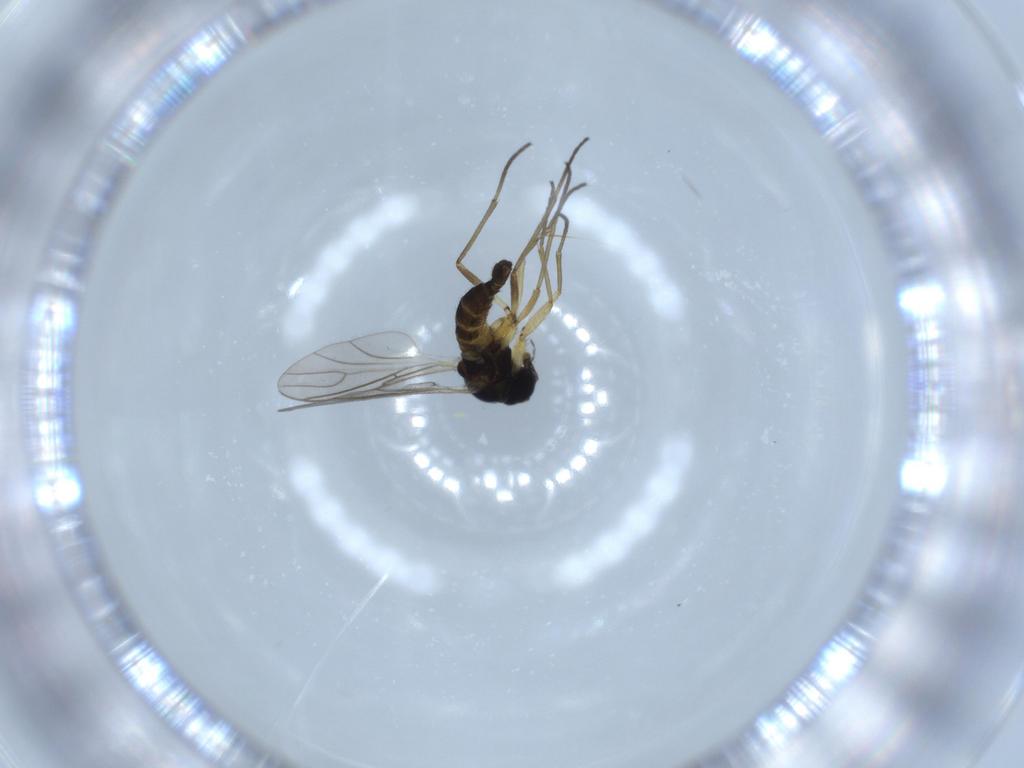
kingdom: Animalia
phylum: Arthropoda
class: Insecta
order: Diptera
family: Sciaridae
